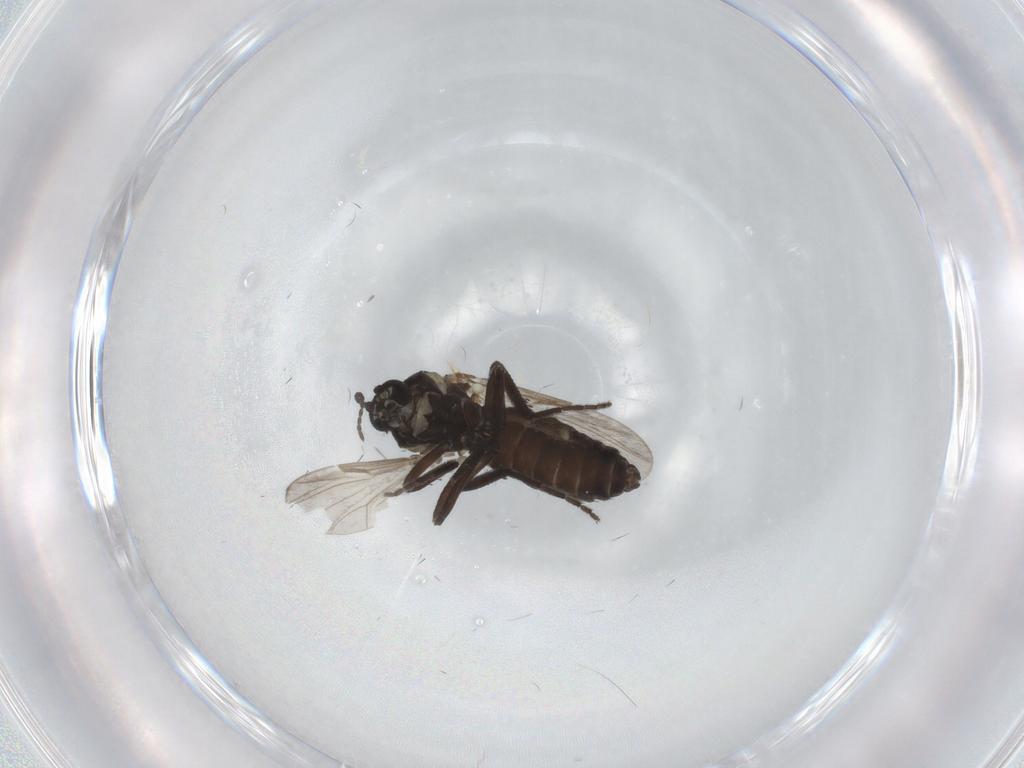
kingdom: Animalia
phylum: Arthropoda
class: Insecta
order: Diptera
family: Ceratopogonidae
